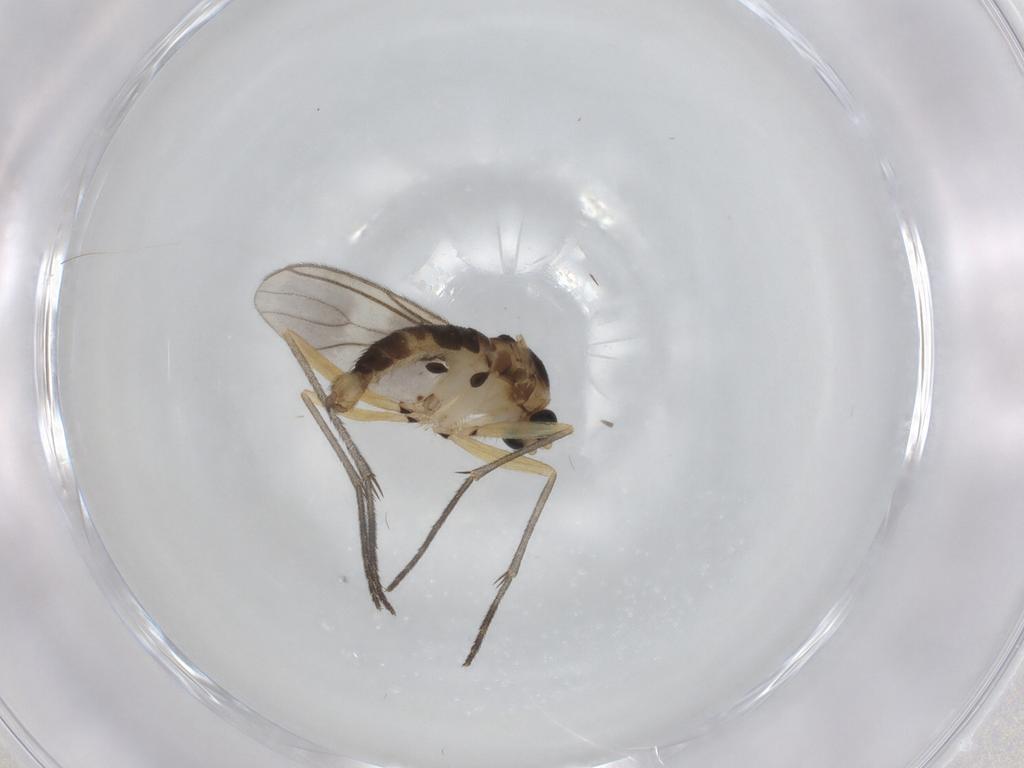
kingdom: Animalia
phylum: Arthropoda
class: Insecta
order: Diptera
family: Sciaridae
